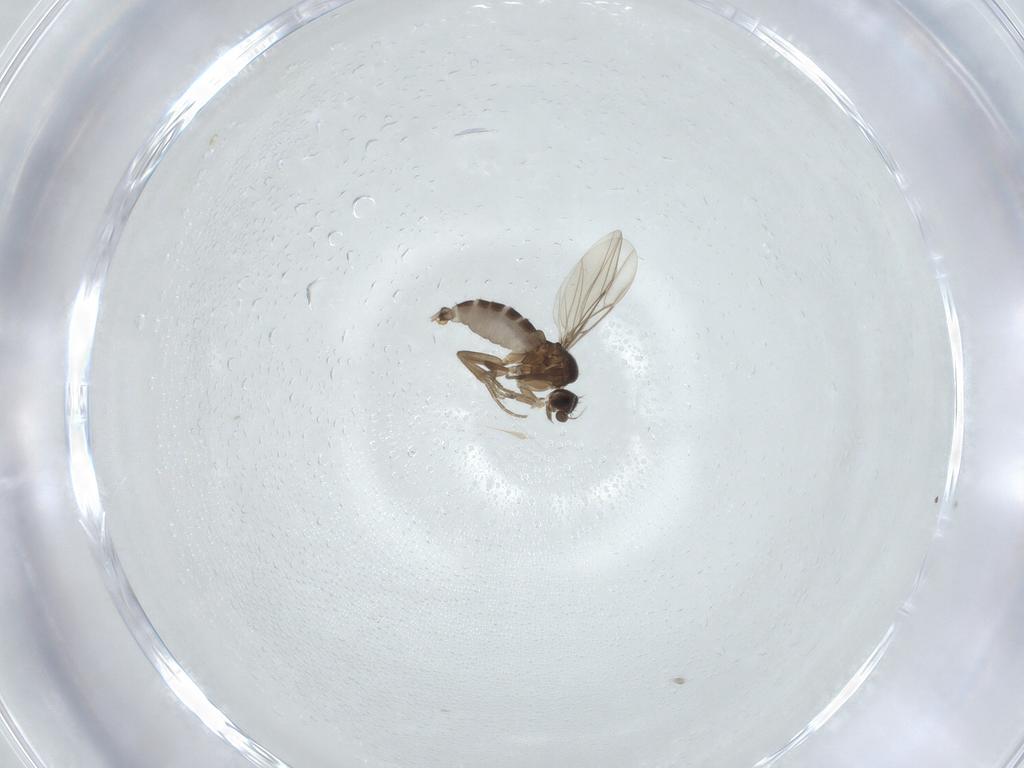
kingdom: Animalia
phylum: Arthropoda
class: Insecta
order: Diptera
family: Phoridae
